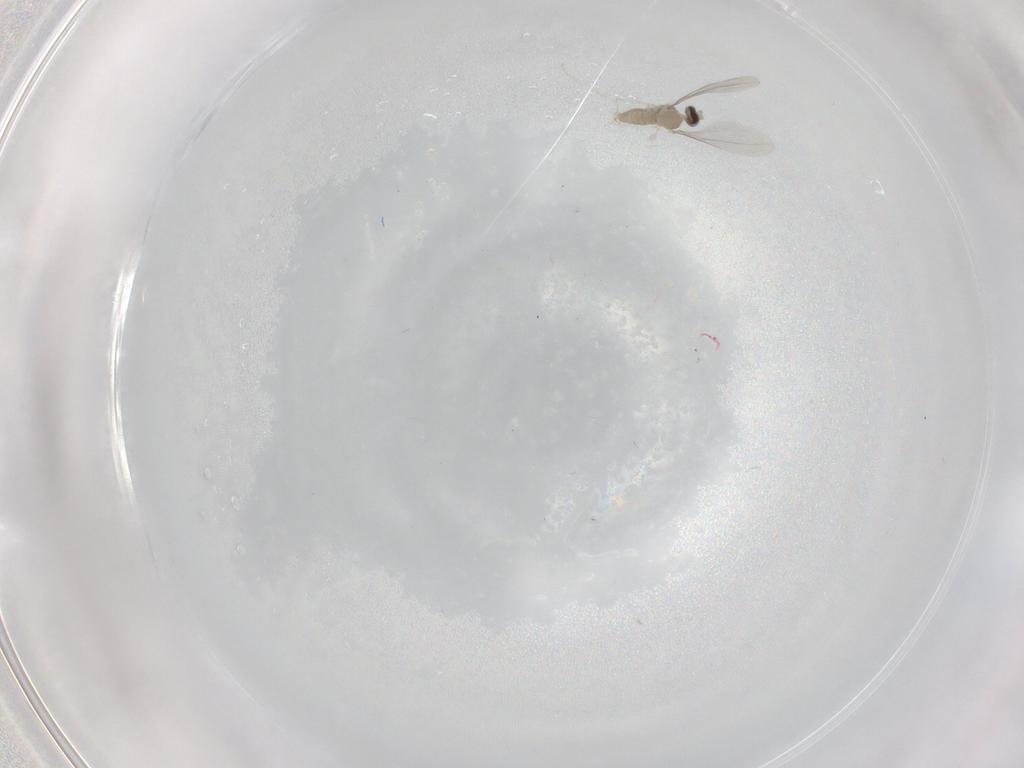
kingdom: Animalia
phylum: Arthropoda
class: Insecta
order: Diptera
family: Cecidomyiidae
